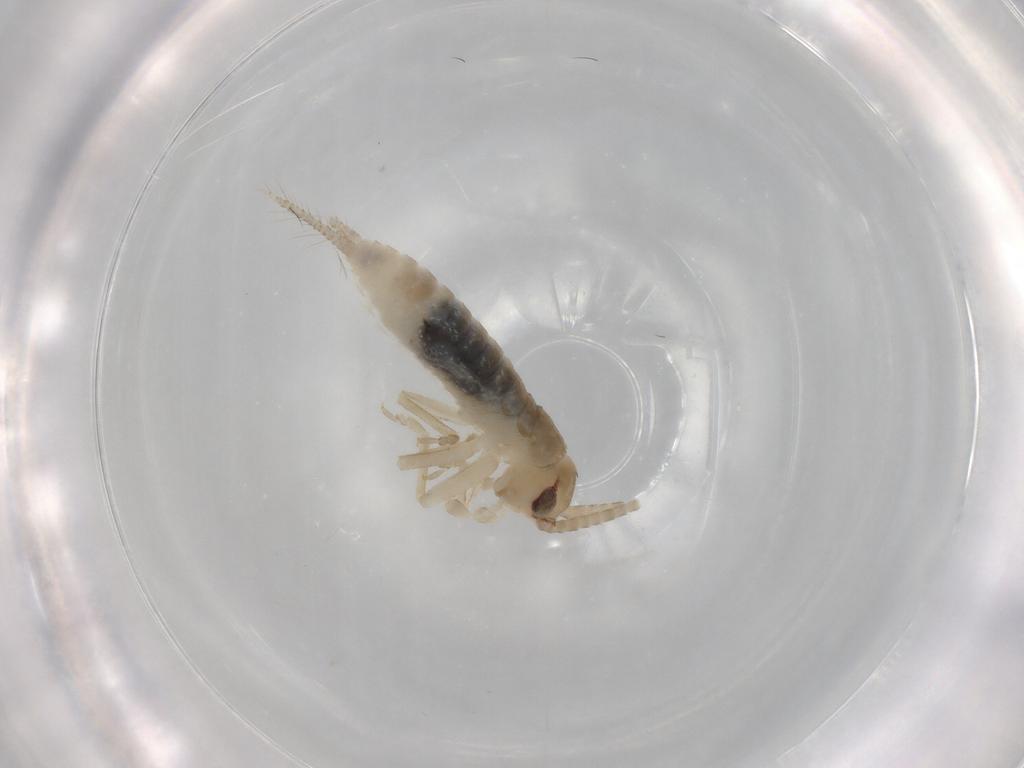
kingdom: Animalia
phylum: Arthropoda
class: Insecta
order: Orthoptera
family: Gryllidae
